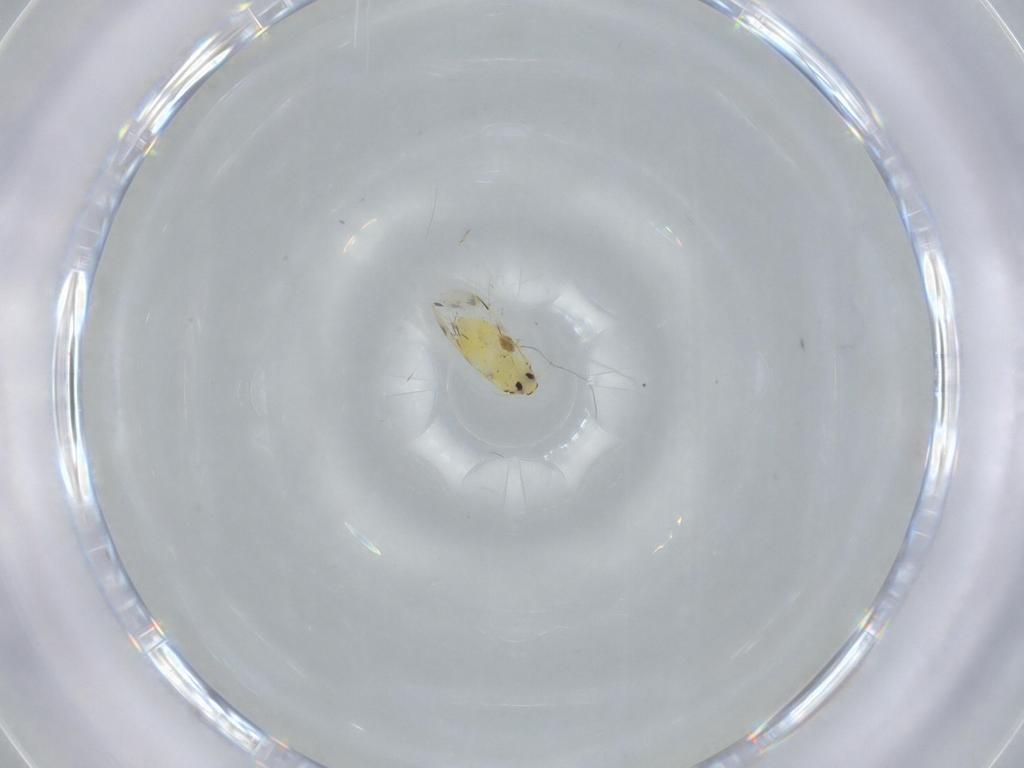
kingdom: Animalia
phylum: Arthropoda
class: Insecta
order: Hemiptera
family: Aleyrodidae
